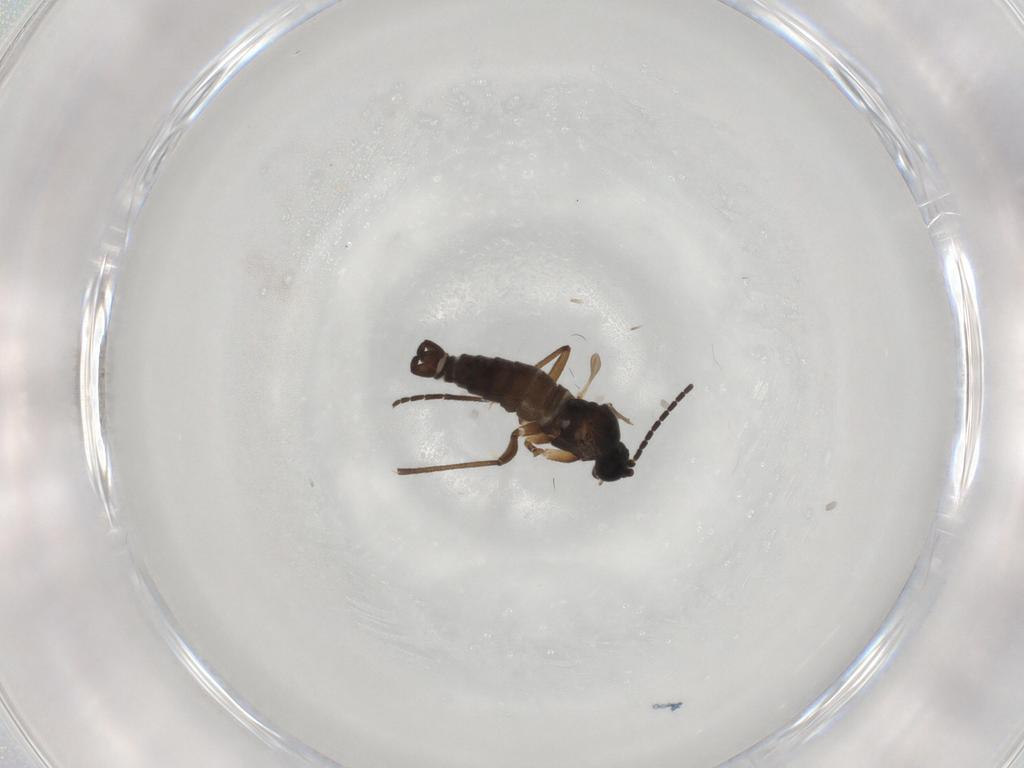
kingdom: Animalia
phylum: Arthropoda
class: Insecta
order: Diptera
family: Sciaridae
